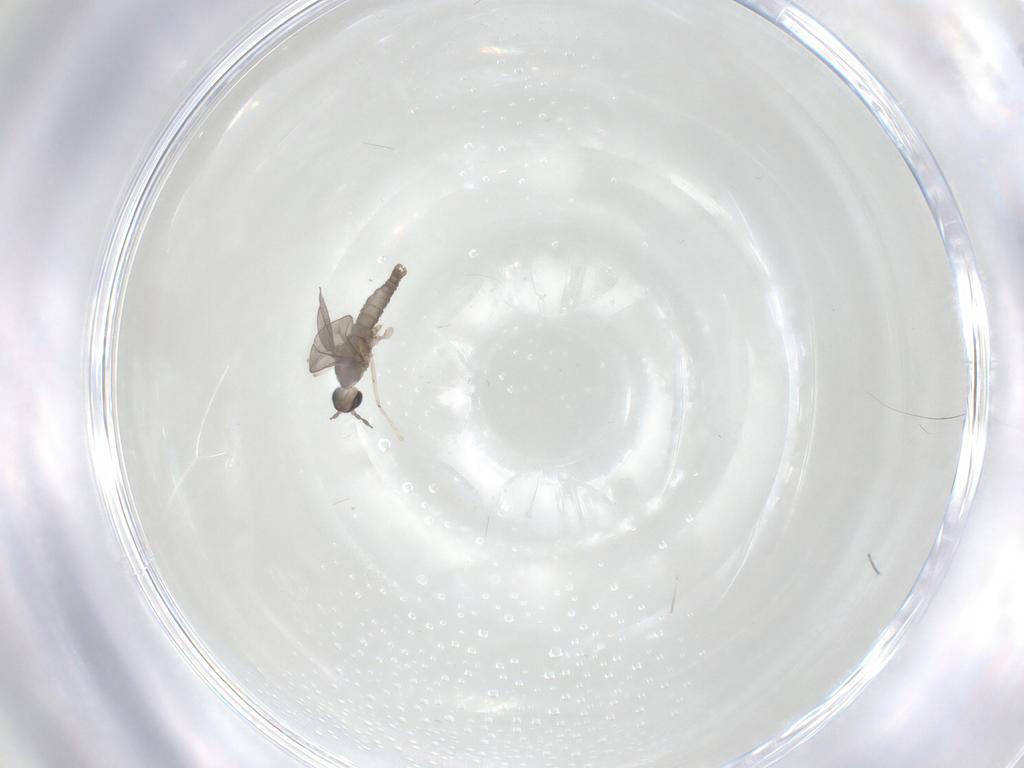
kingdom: Animalia
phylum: Arthropoda
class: Insecta
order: Diptera
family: Cecidomyiidae
